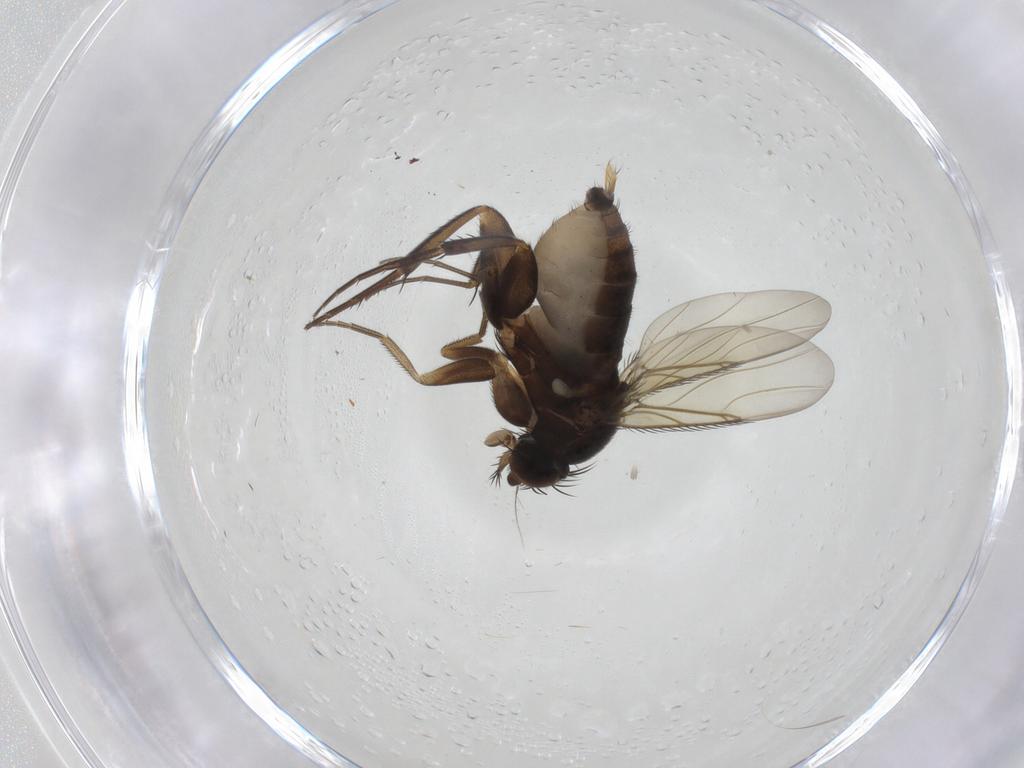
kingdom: Animalia
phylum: Arthropoda
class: Insecta
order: Diptera
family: Phoridae
